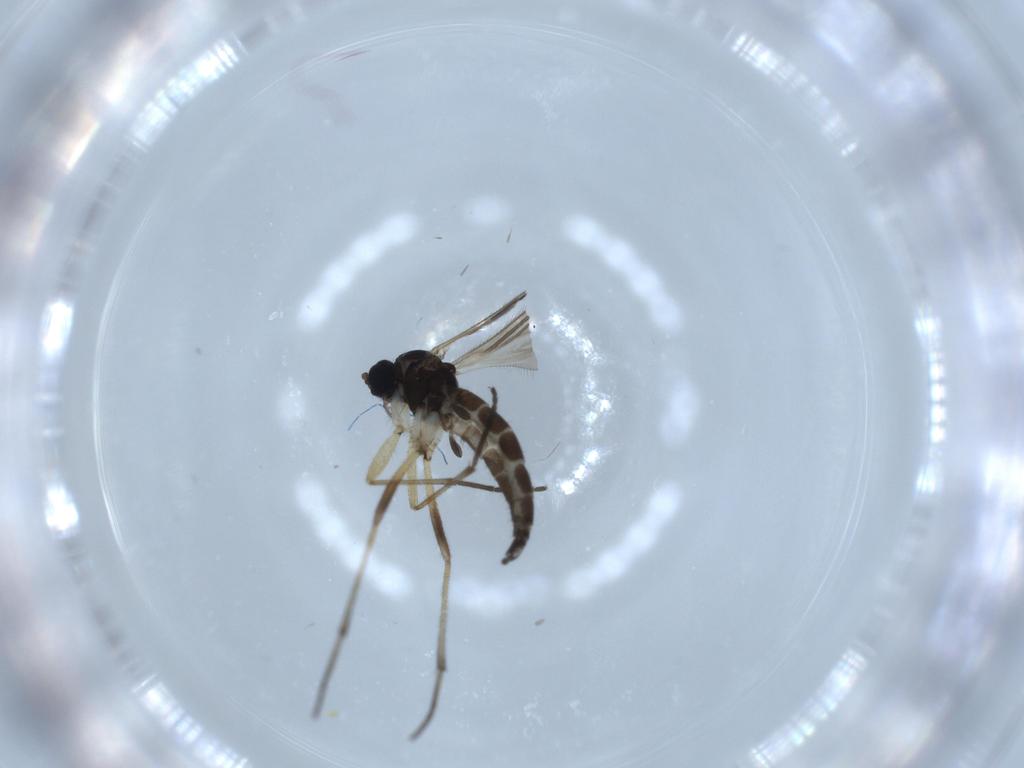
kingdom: Animalia
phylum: Arthropoda
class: Insecta
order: Diptera
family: Sciaridae
